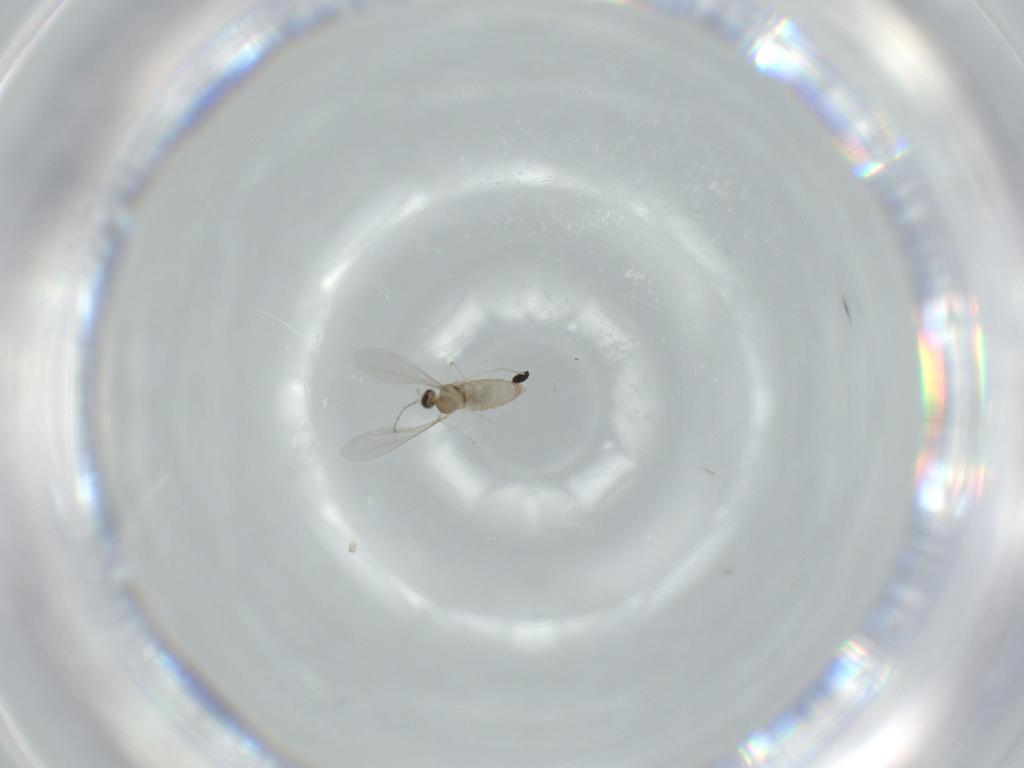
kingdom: Animalia
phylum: Arthropoda
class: Insecta
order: Diptera
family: Cecidomyiidae
